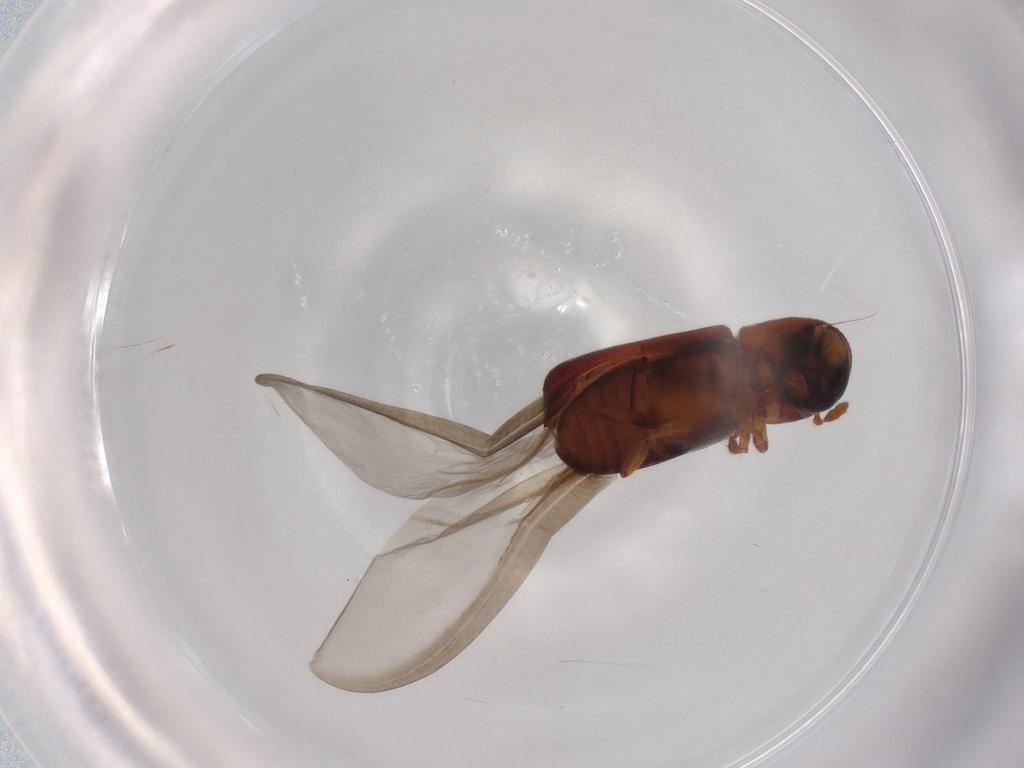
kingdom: Animalia
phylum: Arthropoda
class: Insecta
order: Coleoptera
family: Curculionidae
